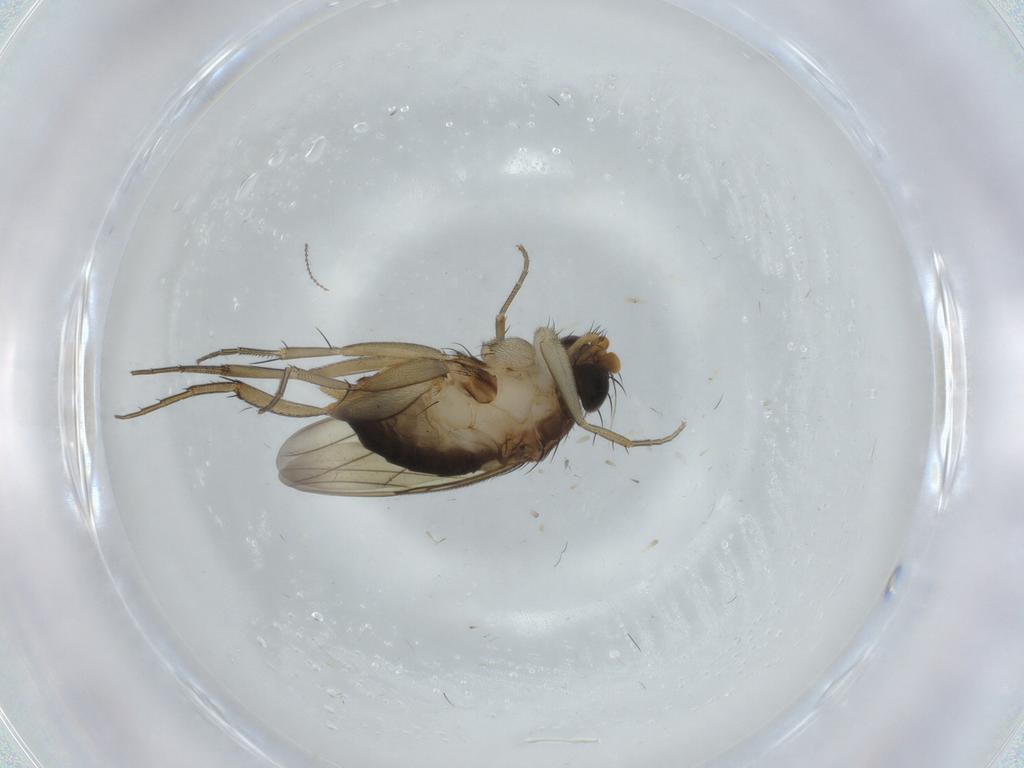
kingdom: Animalia
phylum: Arthropoda
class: Insecta
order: Diptera
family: Phoridae
